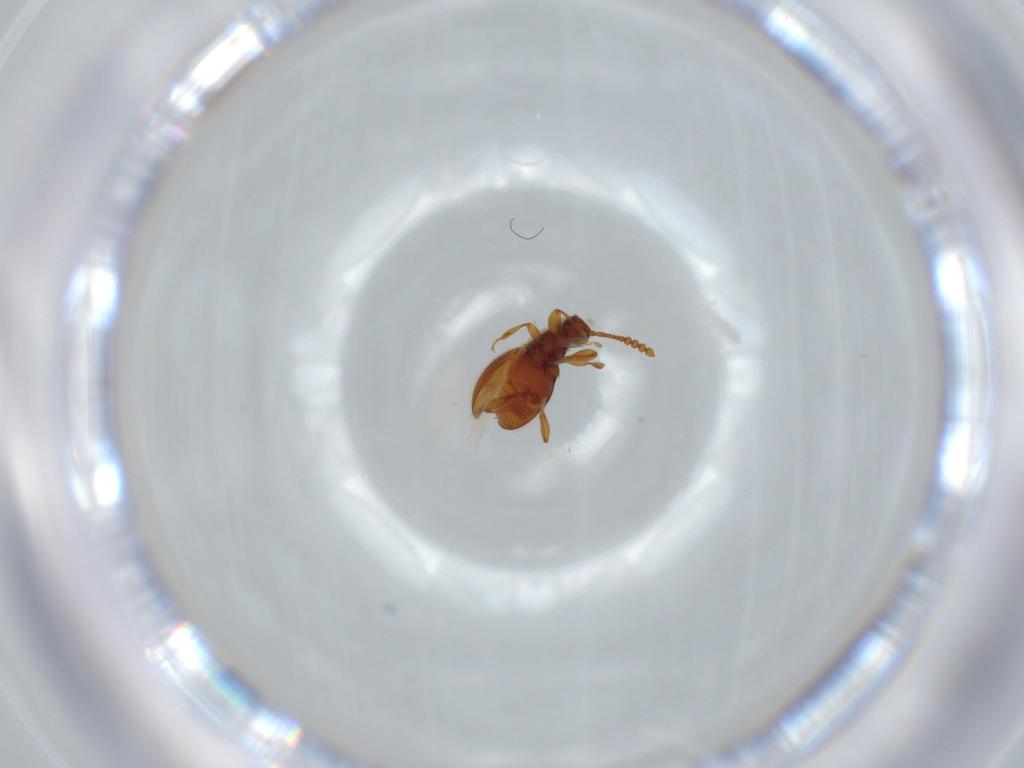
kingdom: Animalia
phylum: Arthropoda
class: Insecta
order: Coleoptera
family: Staphylinidae
